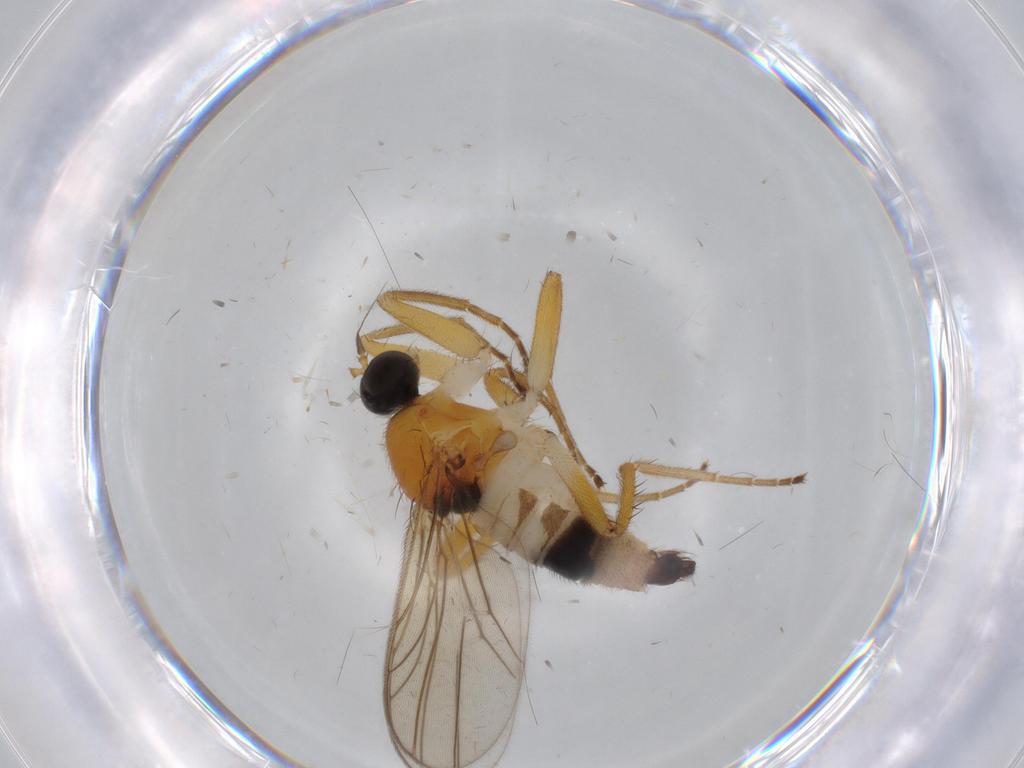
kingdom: Animalia
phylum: Arthropoda
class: Insecta
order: Diptera
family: Hybotidae
